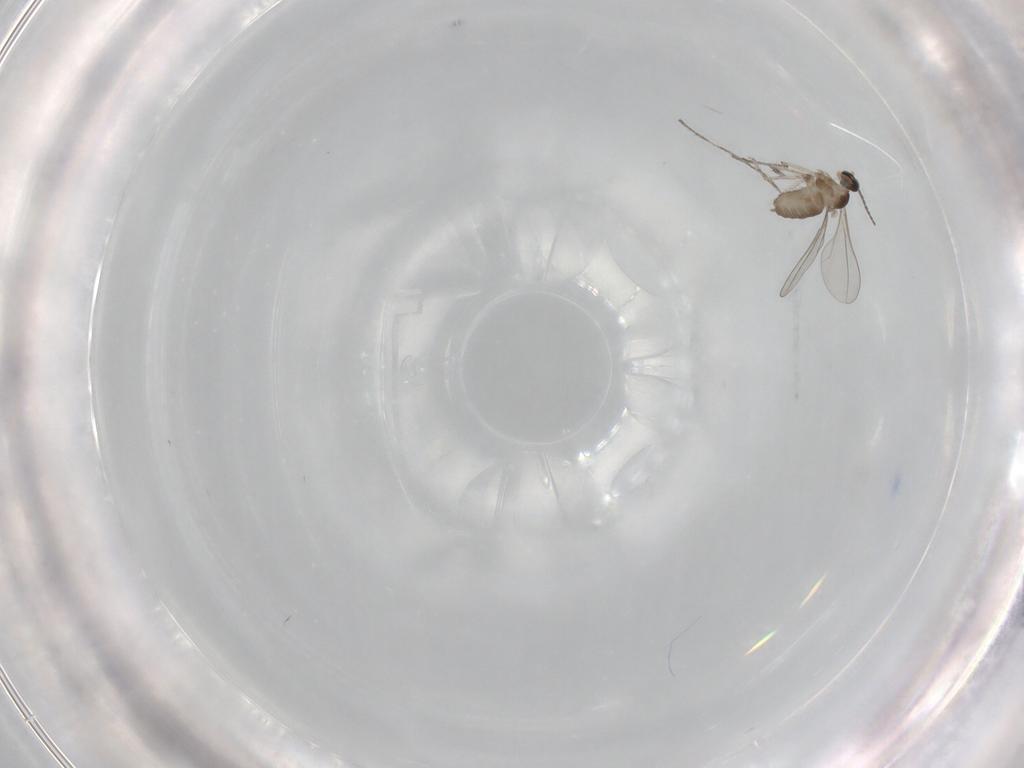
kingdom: Animalia
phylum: Arthropoda
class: Insecta
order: Diptera
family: Cecidomyiidae
